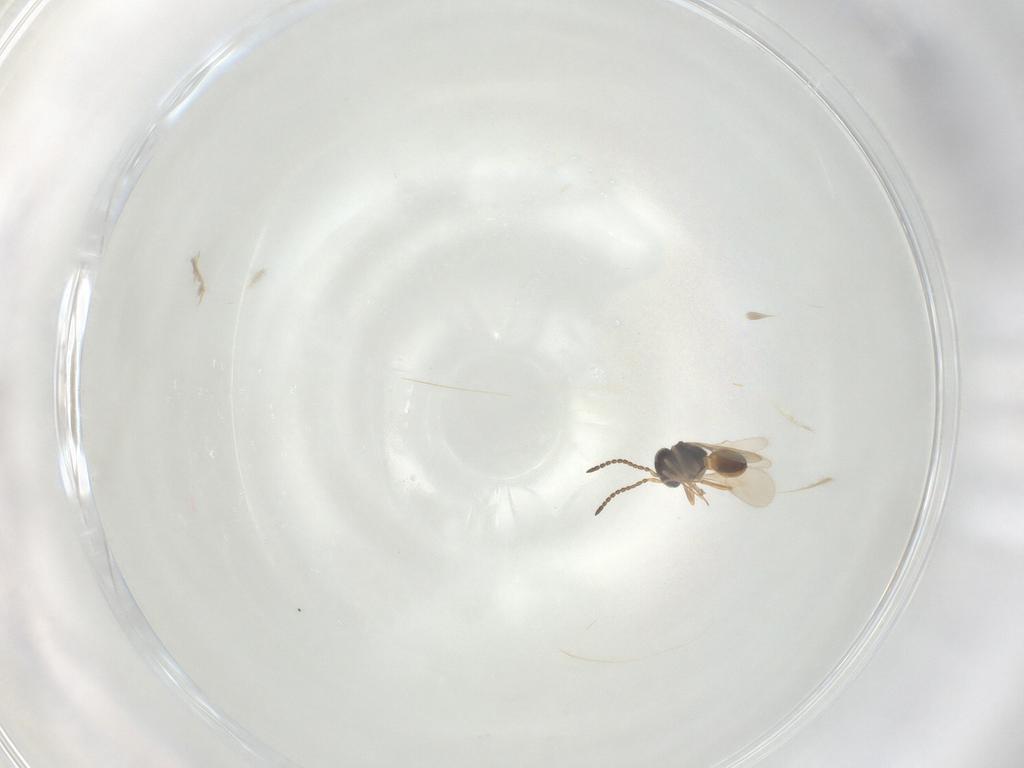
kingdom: Animalia
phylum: Arthropoda
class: Insecta
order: Hymenoptera
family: Scelionidae
